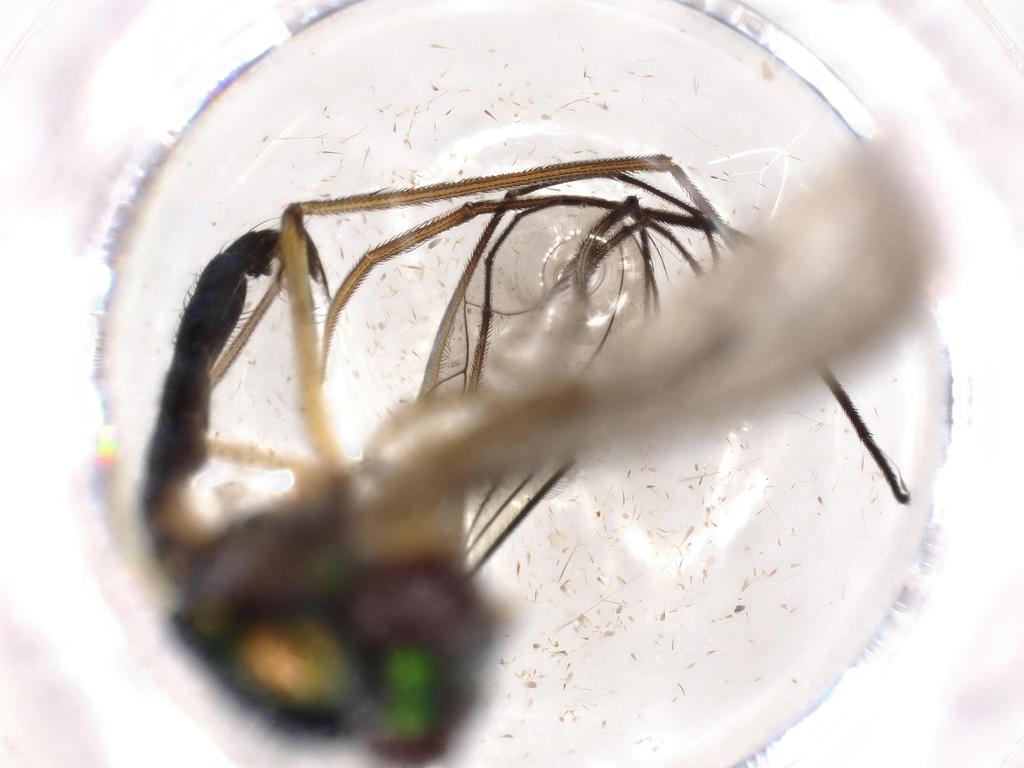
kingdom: Animalia
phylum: Arthropoda
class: Insecta
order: Diptera
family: Dolichopodidae
